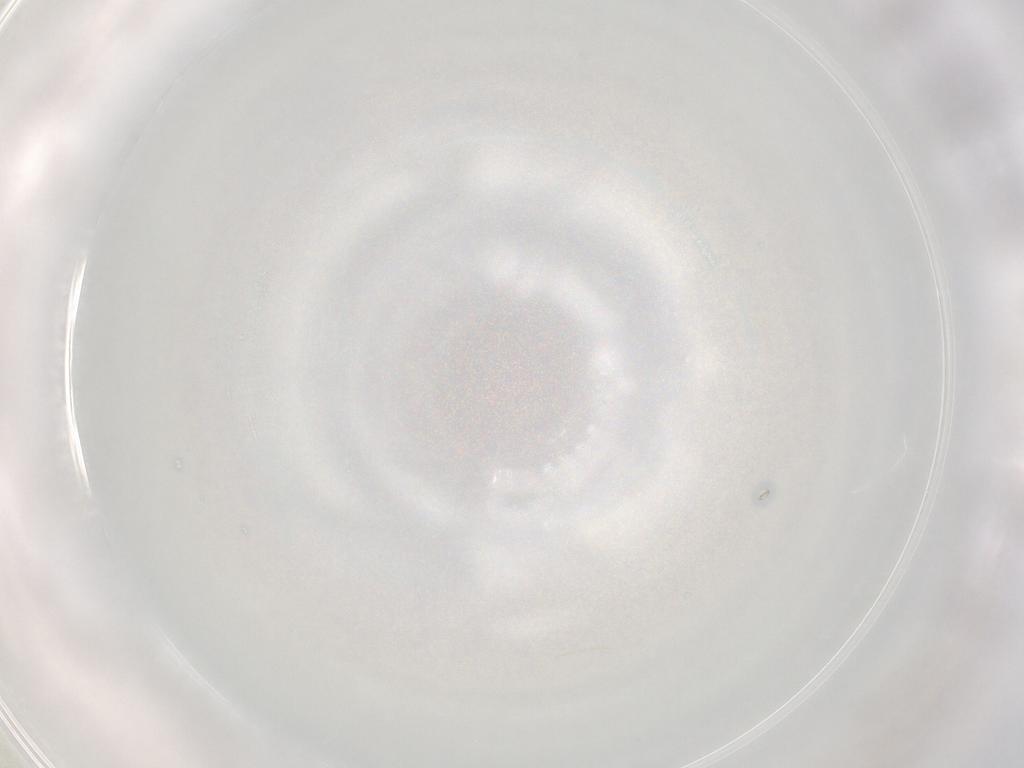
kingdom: Animalia
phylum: Arthropoda
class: Arachnida
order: Trombidiformes
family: Trombidiidae
